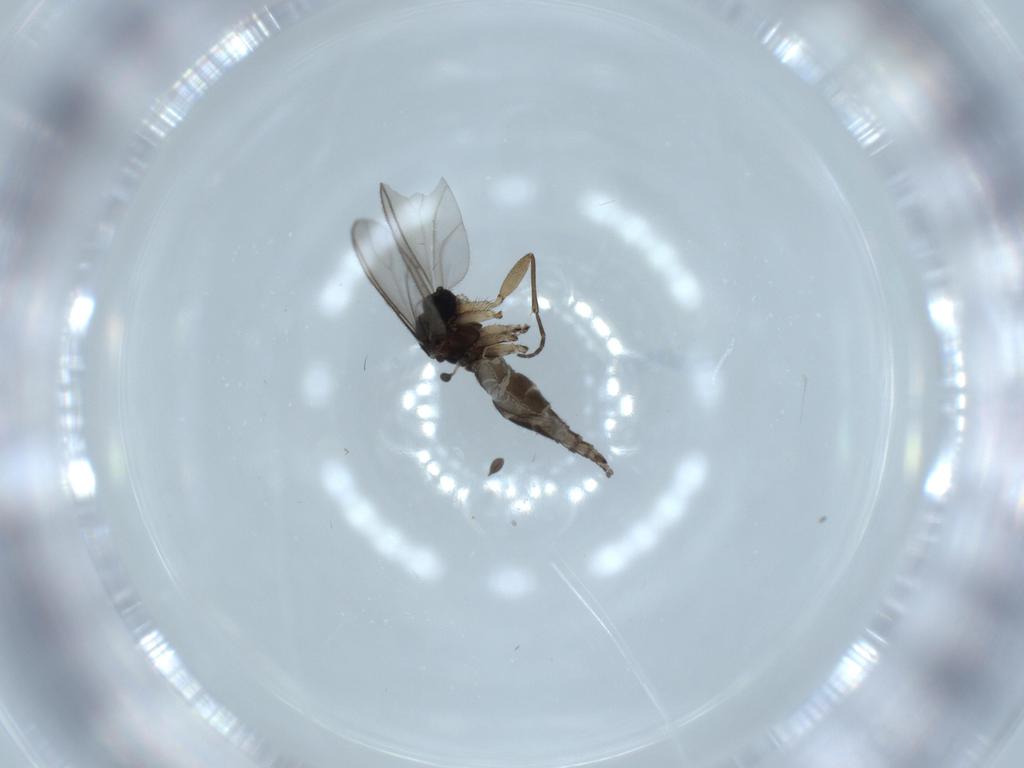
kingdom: Animalia
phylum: Arthropoda
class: Insecta
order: Diptera
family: Sciaridae
